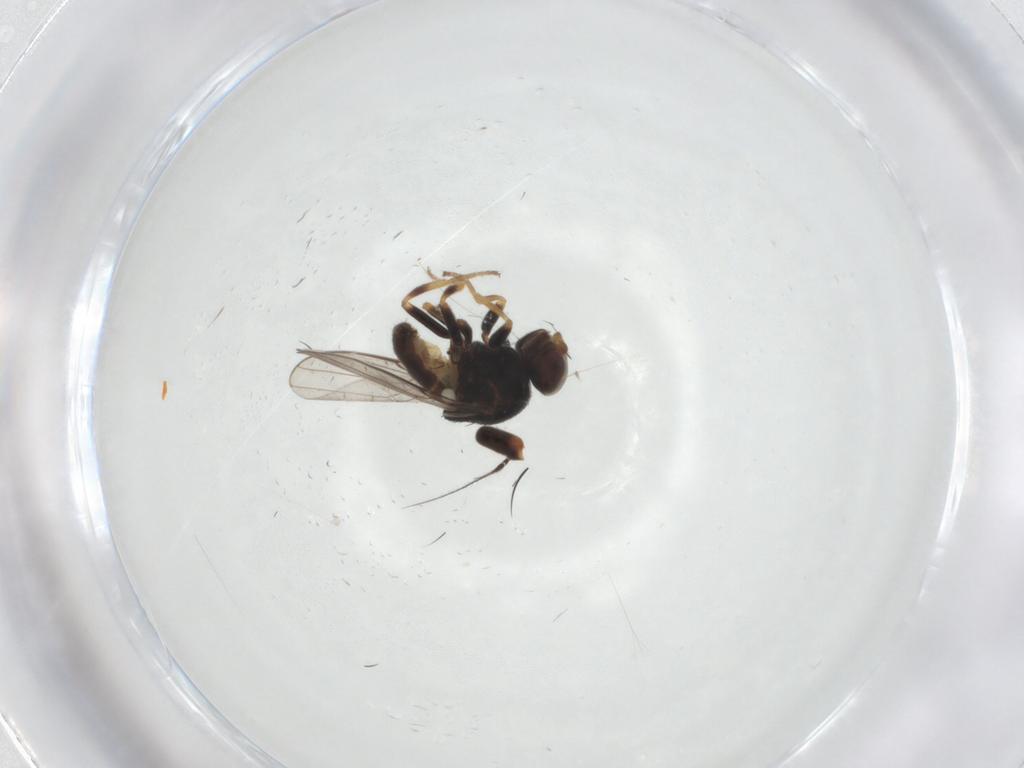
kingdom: Animalia
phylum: Arthropoda
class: Insecta
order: Diptera
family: Chloropidae
